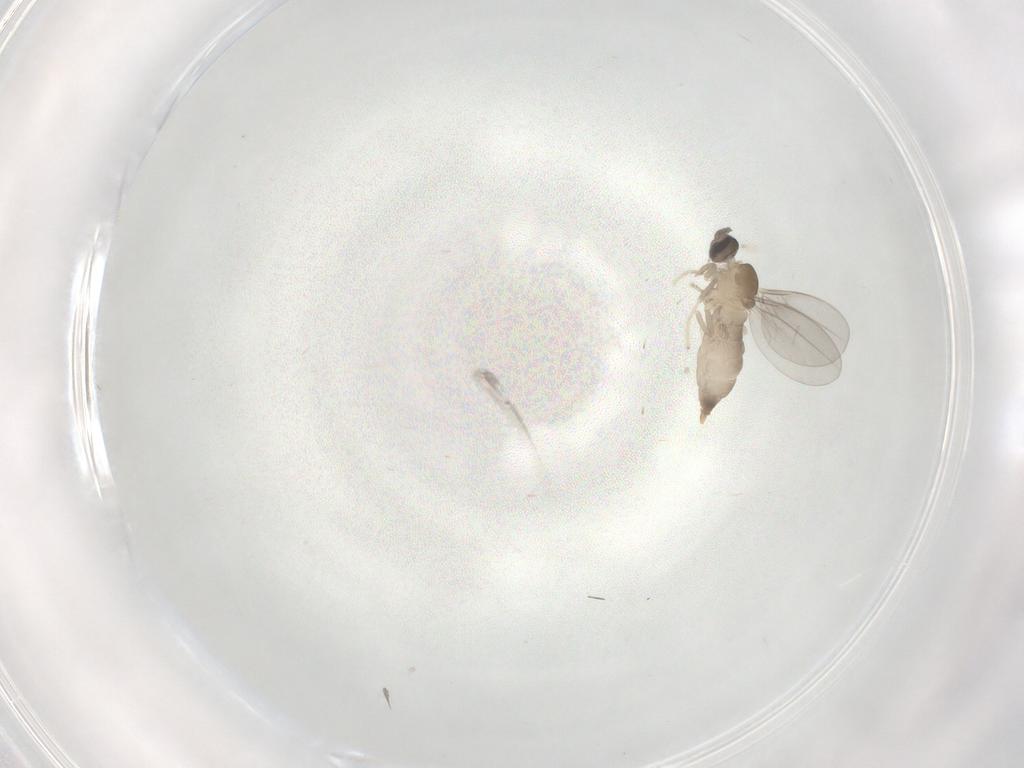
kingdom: Animalia
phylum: Arthropoda
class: Insecta
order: Diptera
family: Cecidomyiidae
